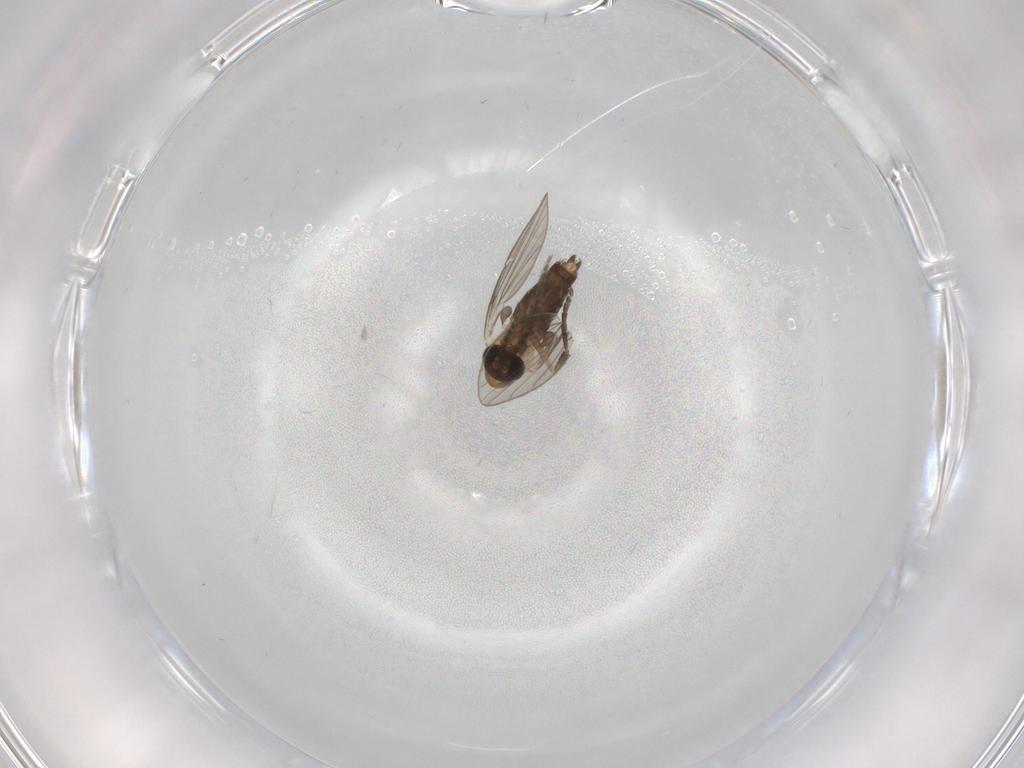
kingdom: Animalia
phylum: Arthropoda
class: Insecta
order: Diptera
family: Psychodidae
